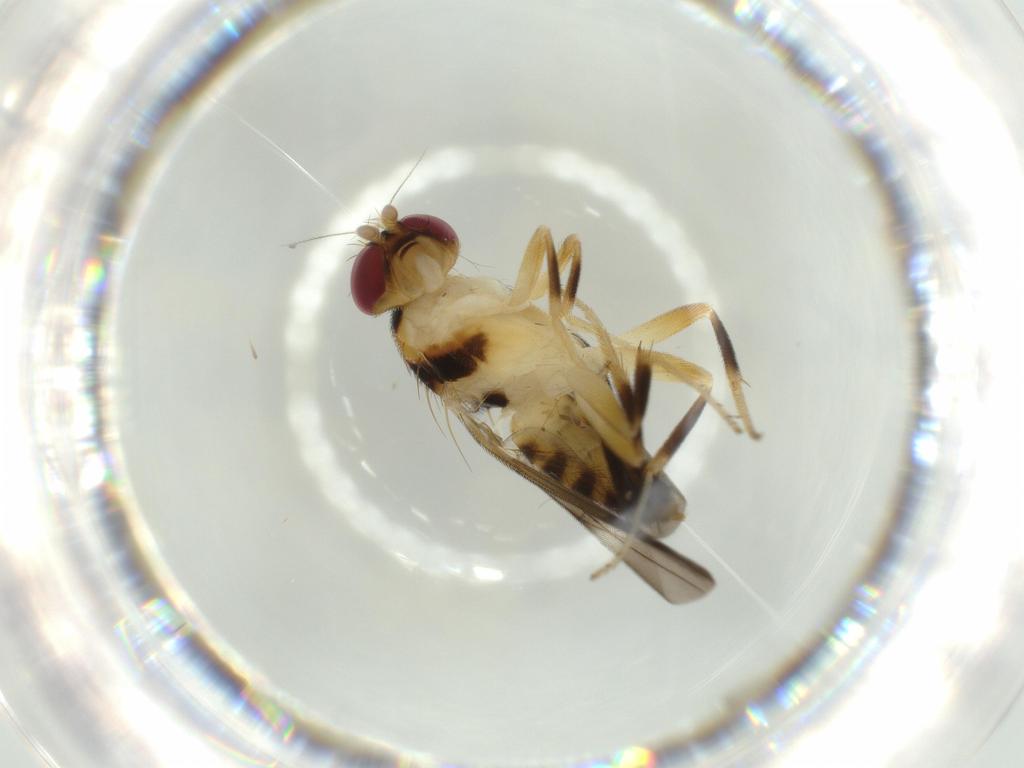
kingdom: Animalia
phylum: Arthropoda
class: Insecta
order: Diptera
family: Clusiidae
